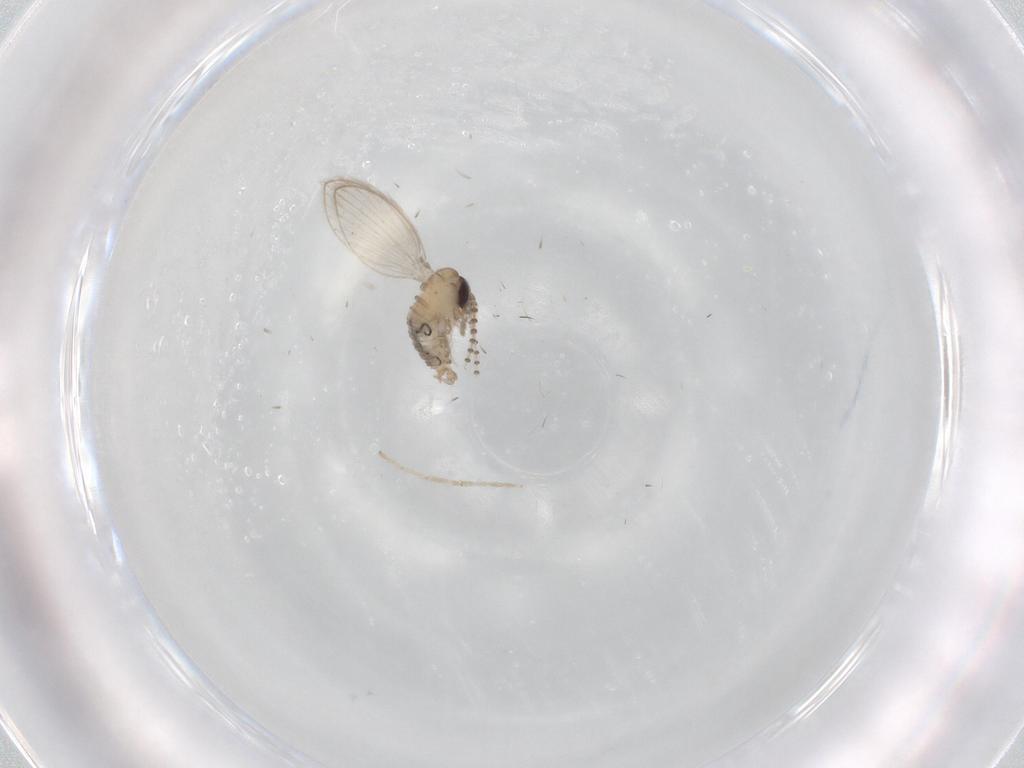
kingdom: Animalia
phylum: Arthropoda
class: Insecta
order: Diptera
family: Psychodidae
